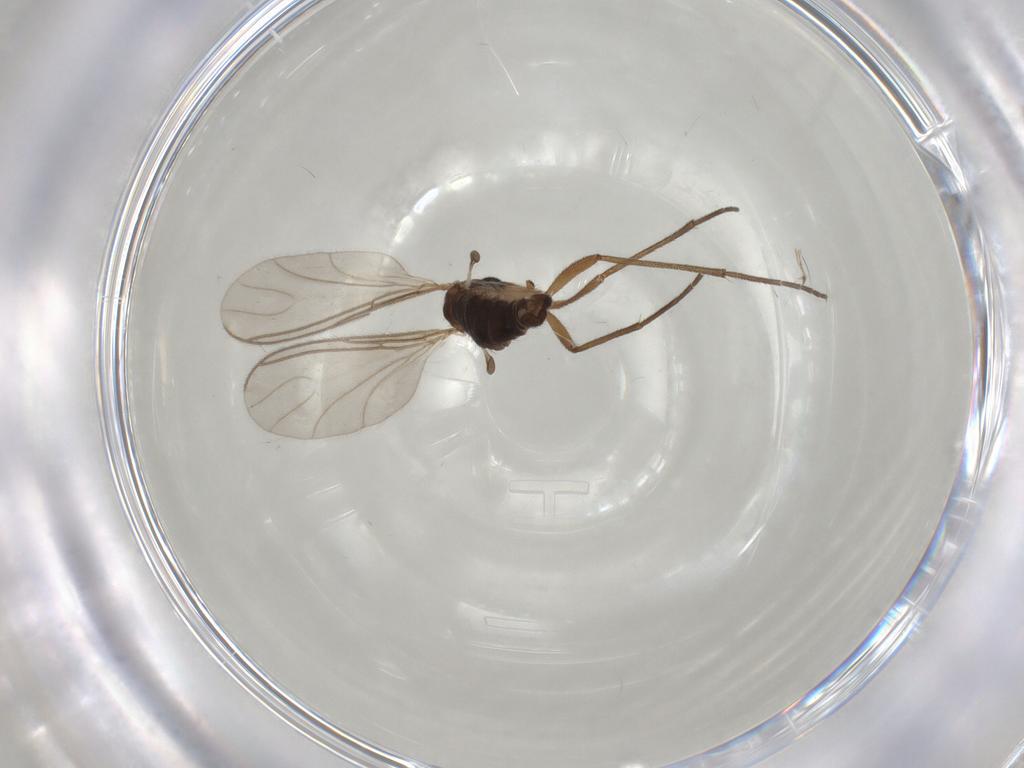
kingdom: Animalia
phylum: Arthropoda
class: Insecta
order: Diptera
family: Sciaridae
